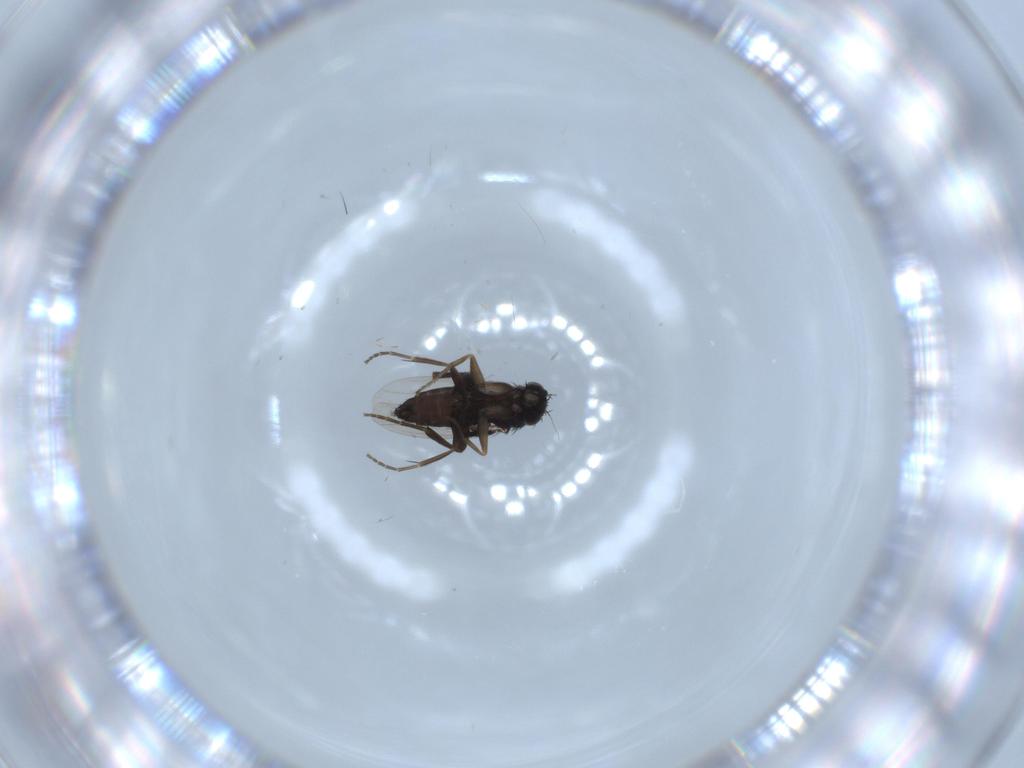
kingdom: Animalia
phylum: Arthropoda
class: Insecta
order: Diptera
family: Phoridae
